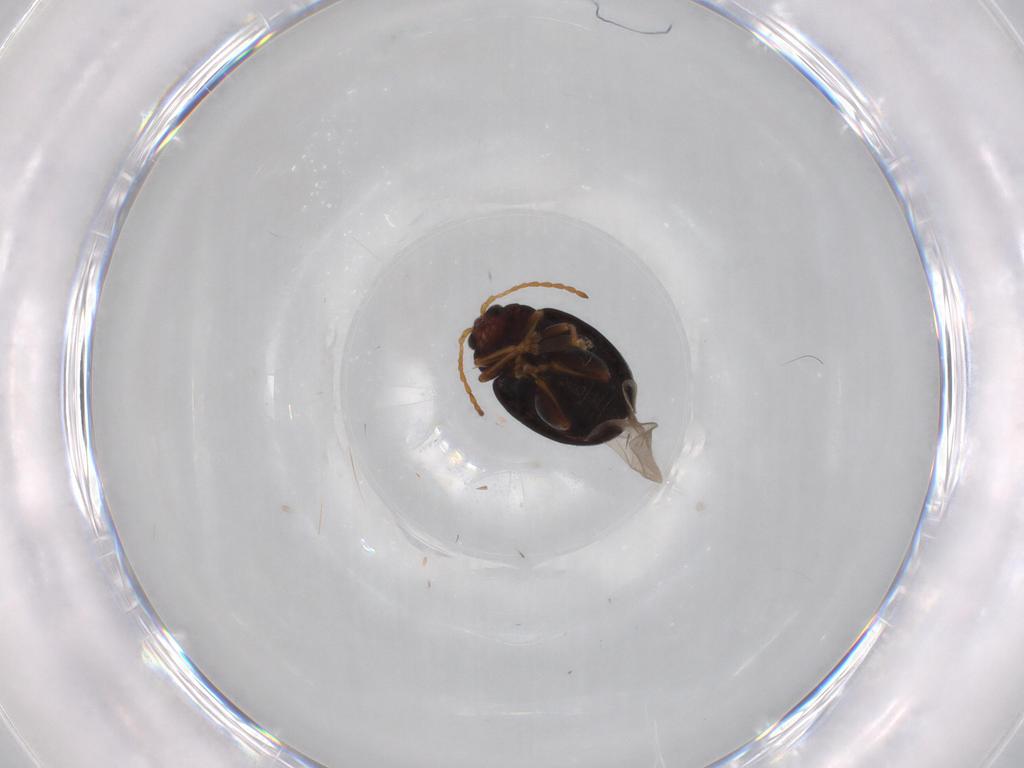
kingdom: Animalia
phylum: Arthropoda
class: Insecta
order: Coleoptera
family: Chrysomelidae
